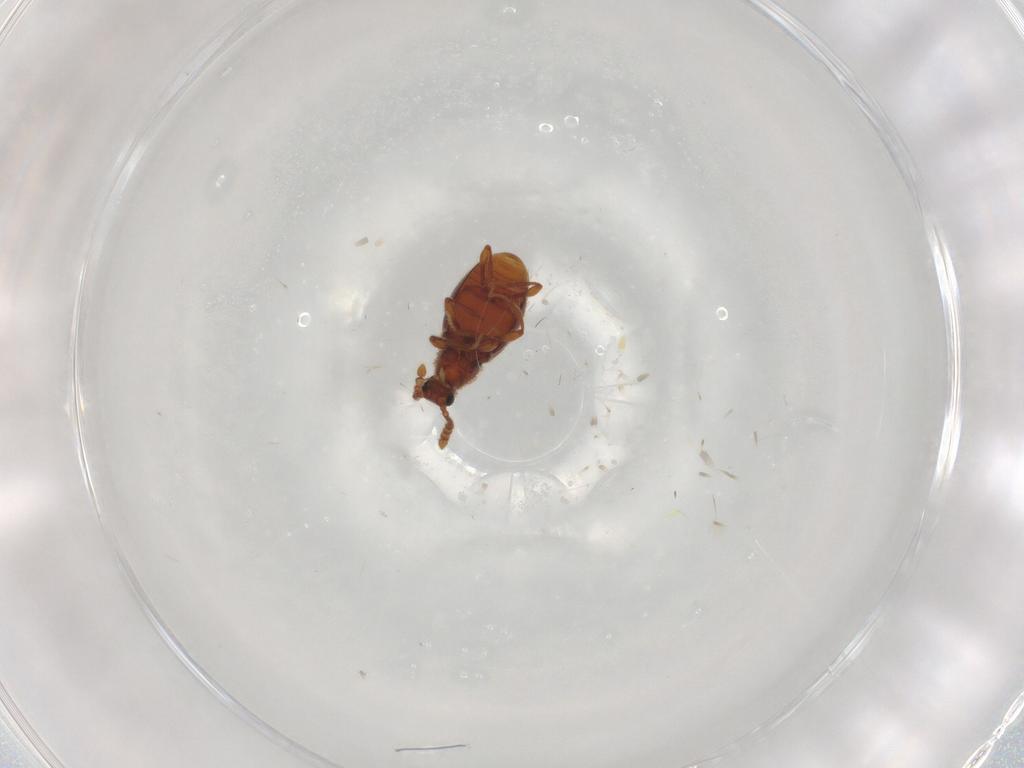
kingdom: Animalia
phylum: Arthropoda
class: Insecta
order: Coleoptera
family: Staphylinidae
